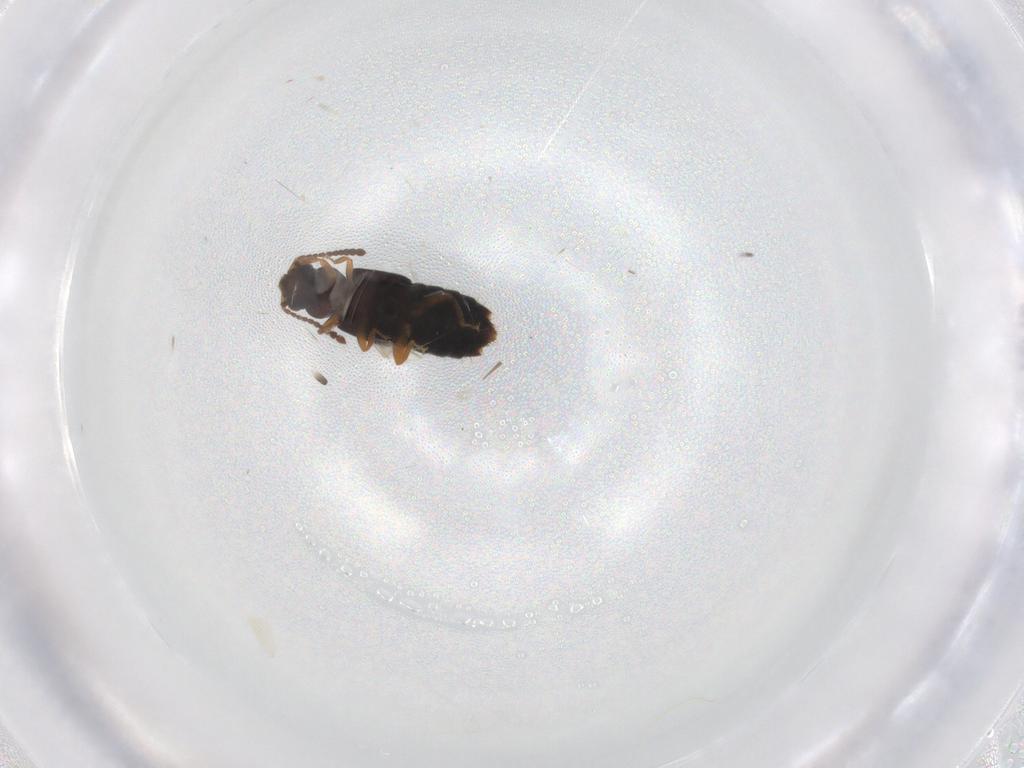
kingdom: Animalia
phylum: Arthropoda
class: Insecta
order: Coleoptera
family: Staphylinidae
